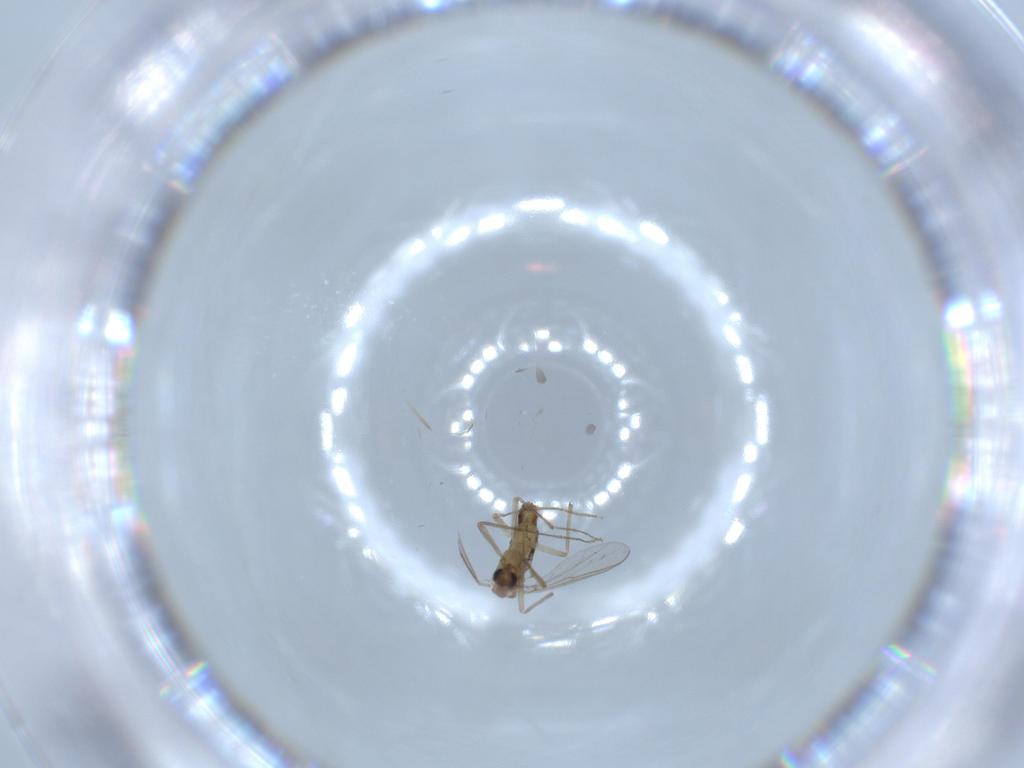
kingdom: Animalia
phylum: Arthropoda
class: Insecta
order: Diptera
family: Chironomidae
